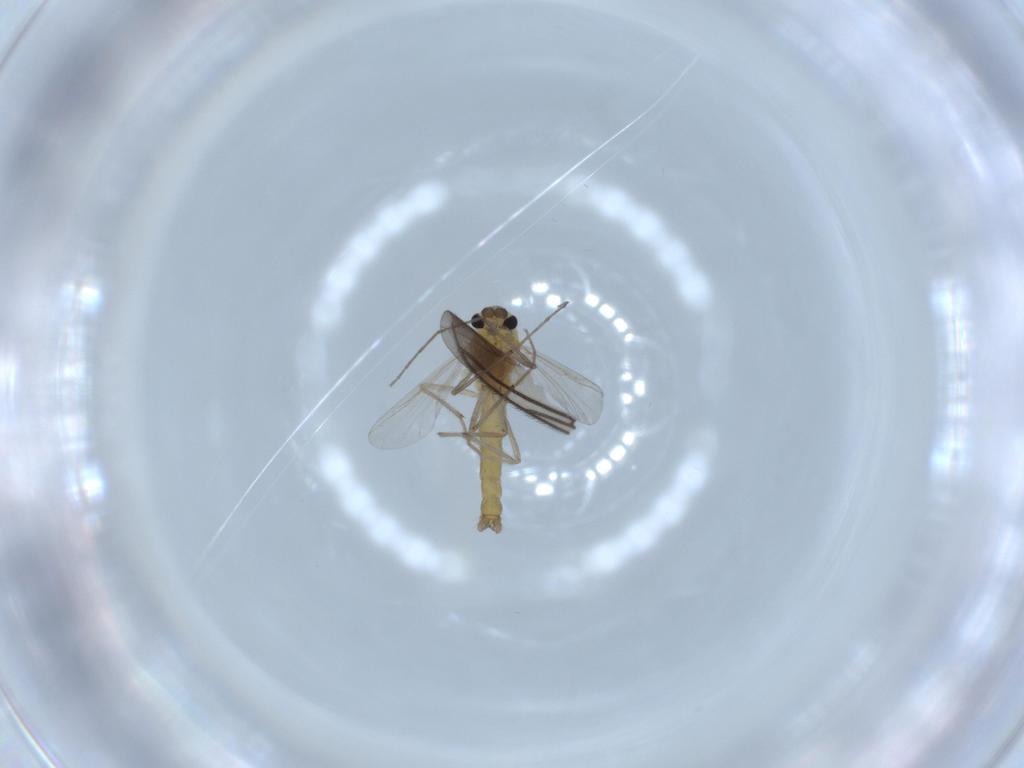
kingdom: Animalia
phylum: Arthropoda
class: Insecta
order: Diptera
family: Chironomidae
